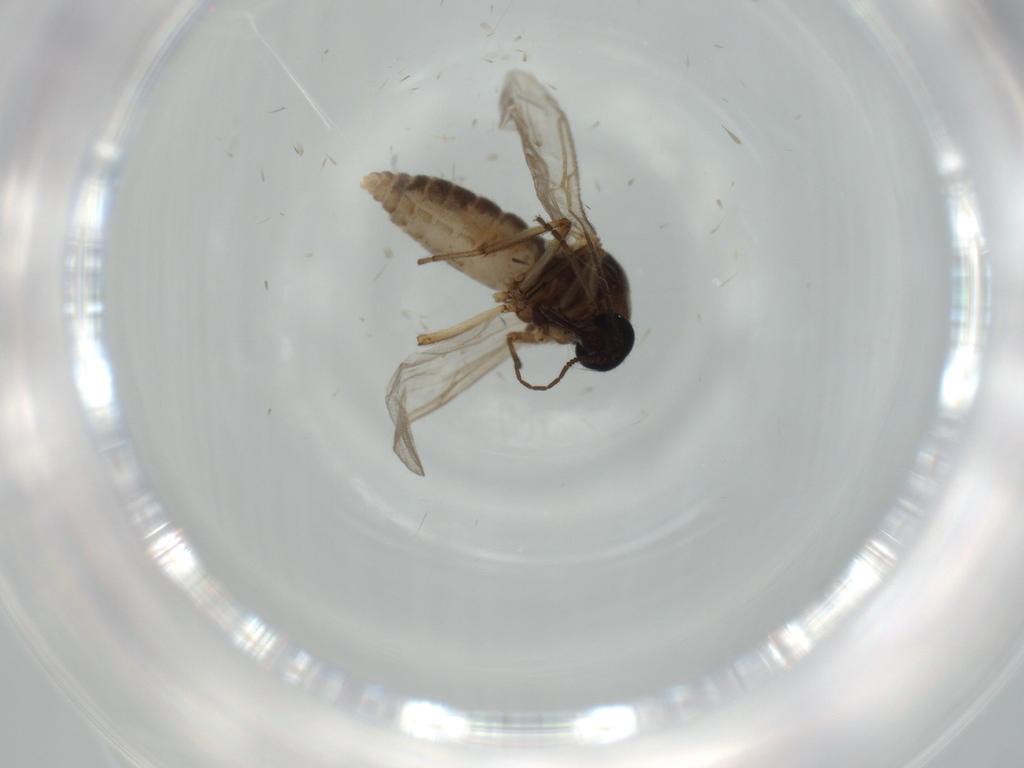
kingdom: Animalia
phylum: Arthropoda
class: Insecta
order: Diptera
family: Ceratopogonidae
